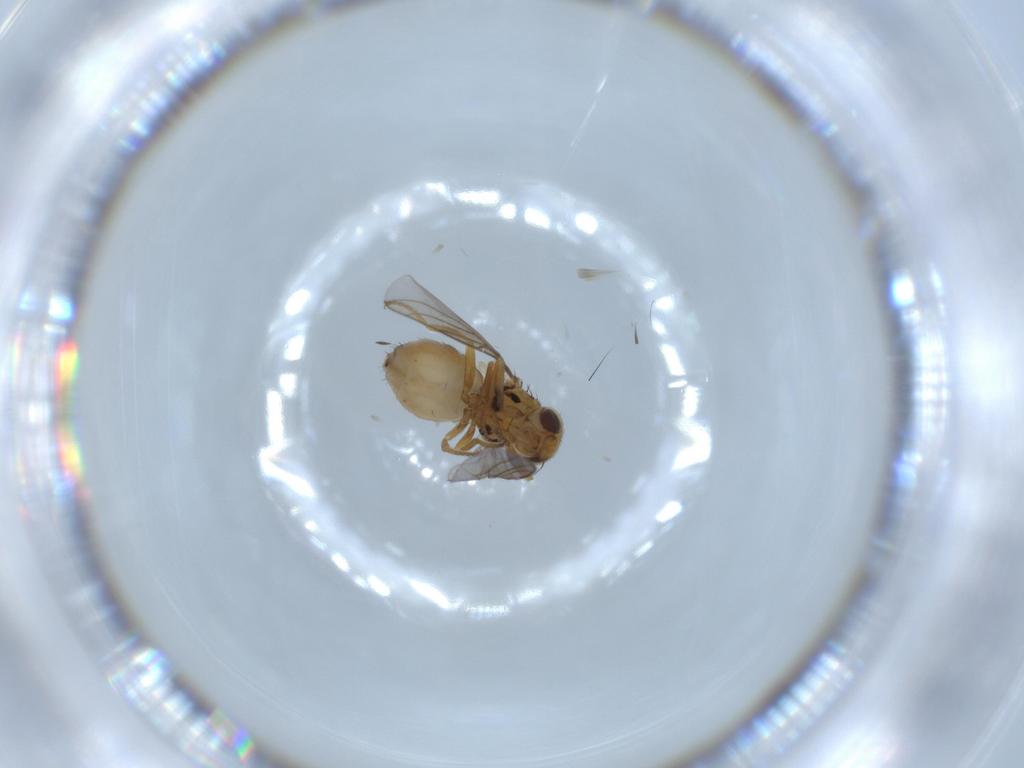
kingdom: Animalia
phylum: Arthropoda
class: Insecta
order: Diptera
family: Chloropidae
